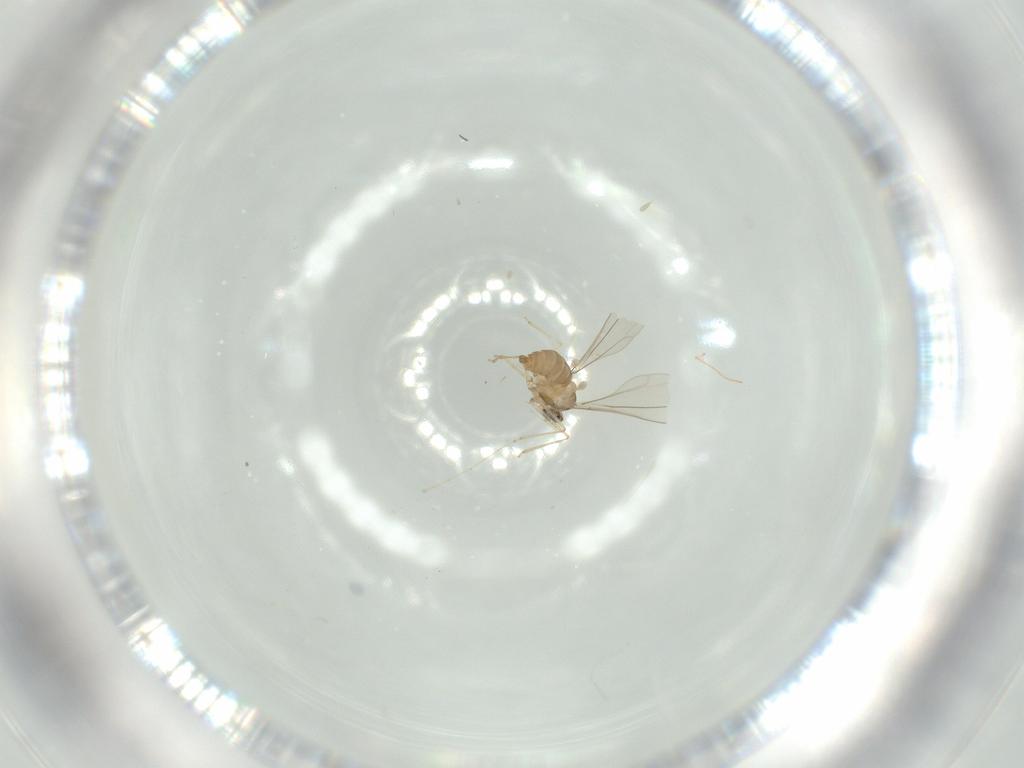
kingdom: Animalia
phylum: Arthropoda
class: Insecta
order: Diptera
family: Cecidomyiidae
